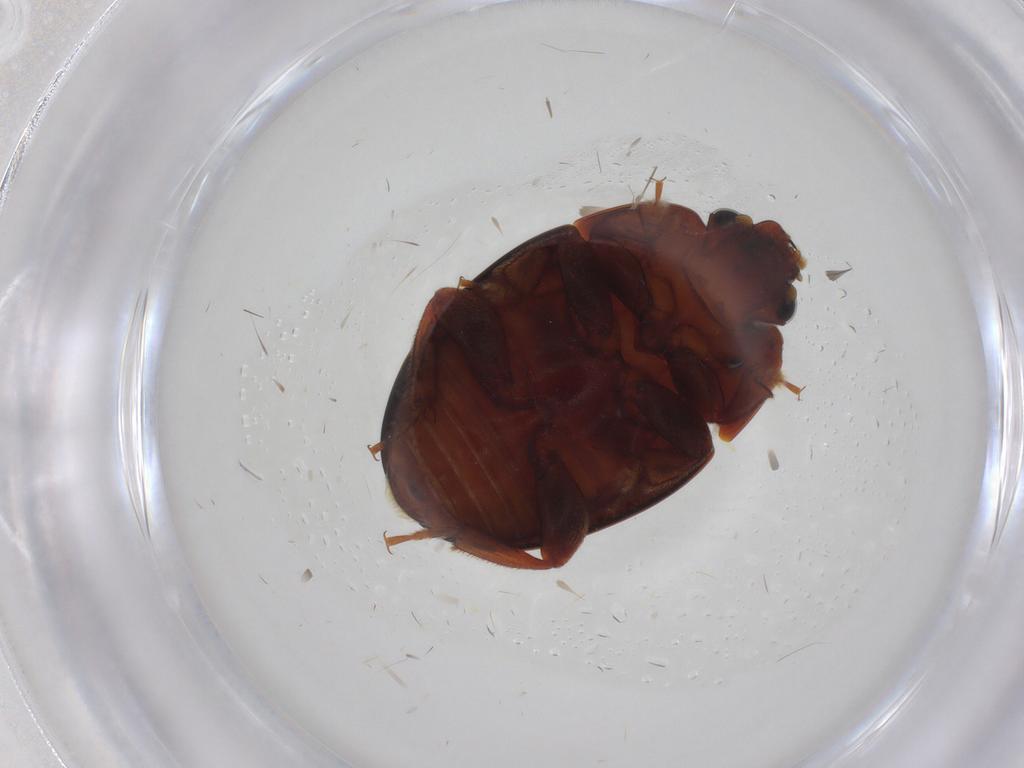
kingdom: Animalia
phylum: Arthropoda
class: Insecta
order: Coleoptera
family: Nitidulidae
